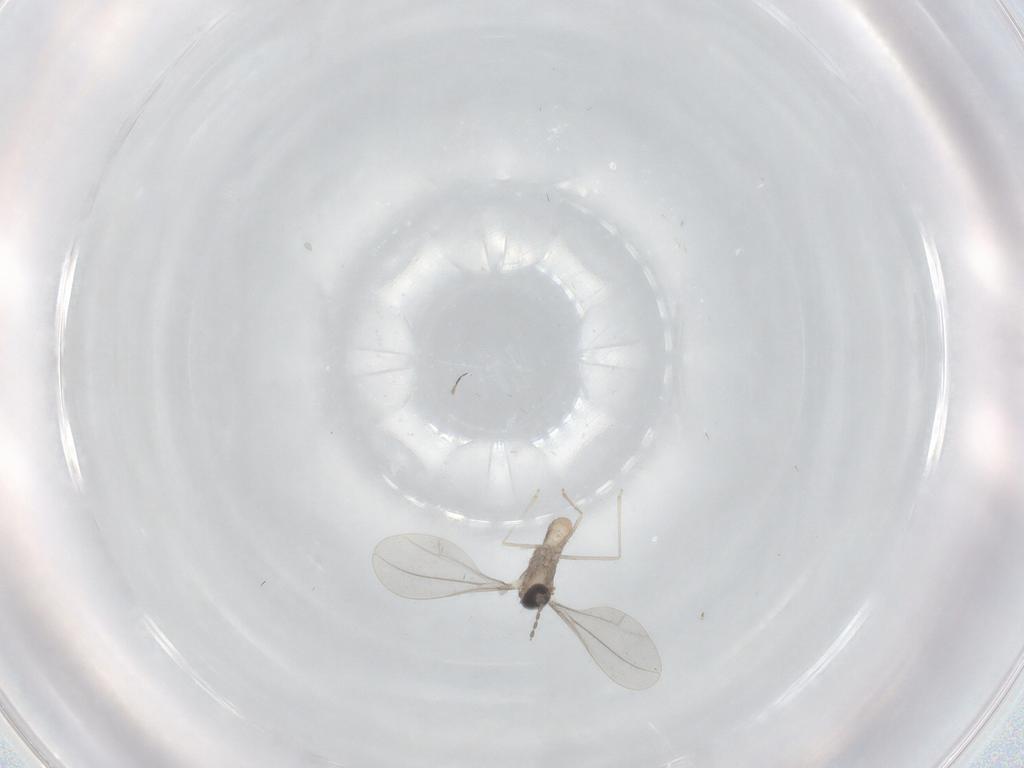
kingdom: Animalia
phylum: Arthropoda
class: Insecta
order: Diptera
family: Cecidomyiidae
